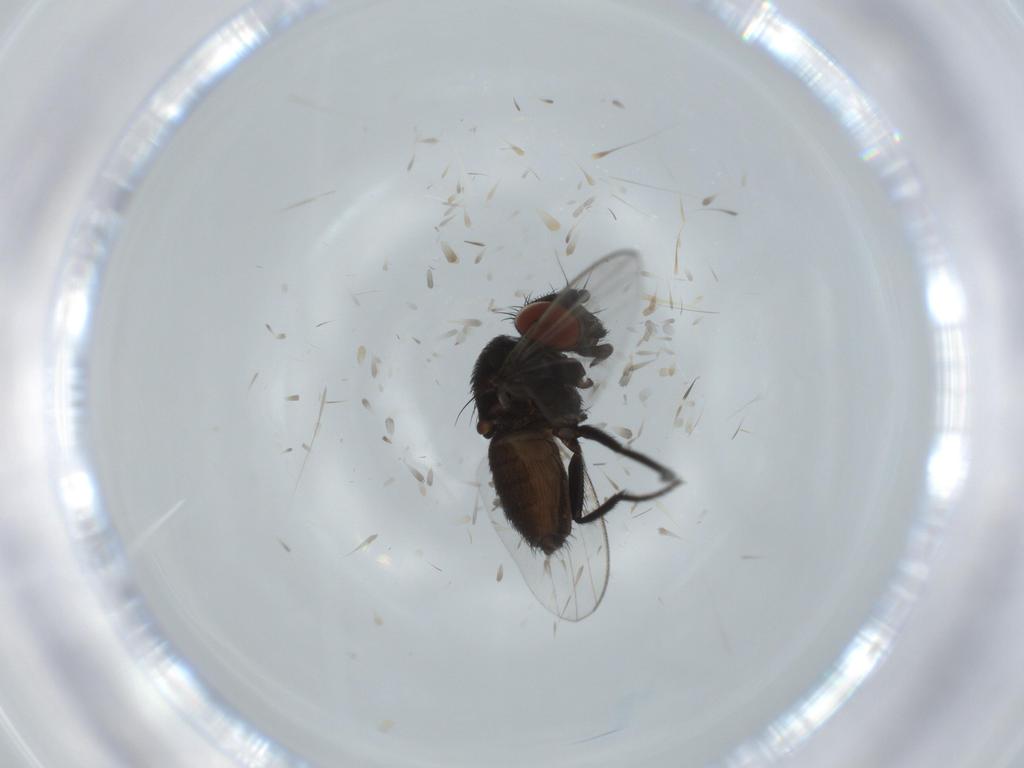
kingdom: Animalia
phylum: Arthropoda
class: Insecta
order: Diptera
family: Milichiidae
